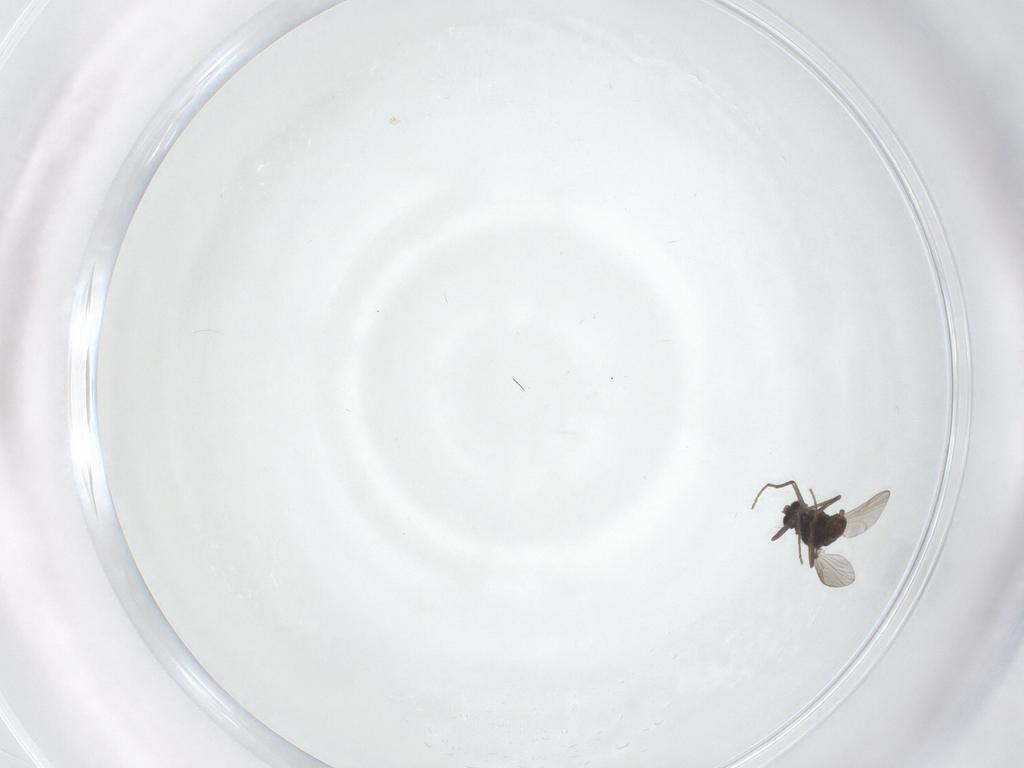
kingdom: Animalia
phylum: Arthropoda
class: Insecta
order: Diptera
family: Chironomidae
